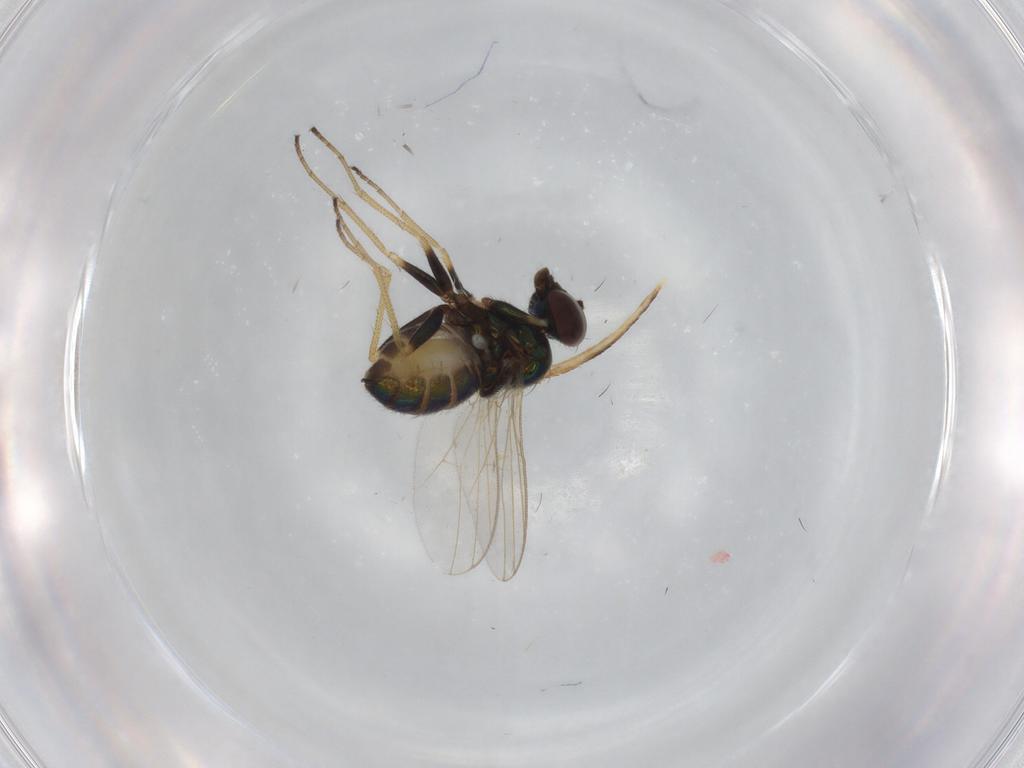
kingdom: Animalia
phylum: Arthropoda
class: Insecta
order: Diptera
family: Dolichopodidae
